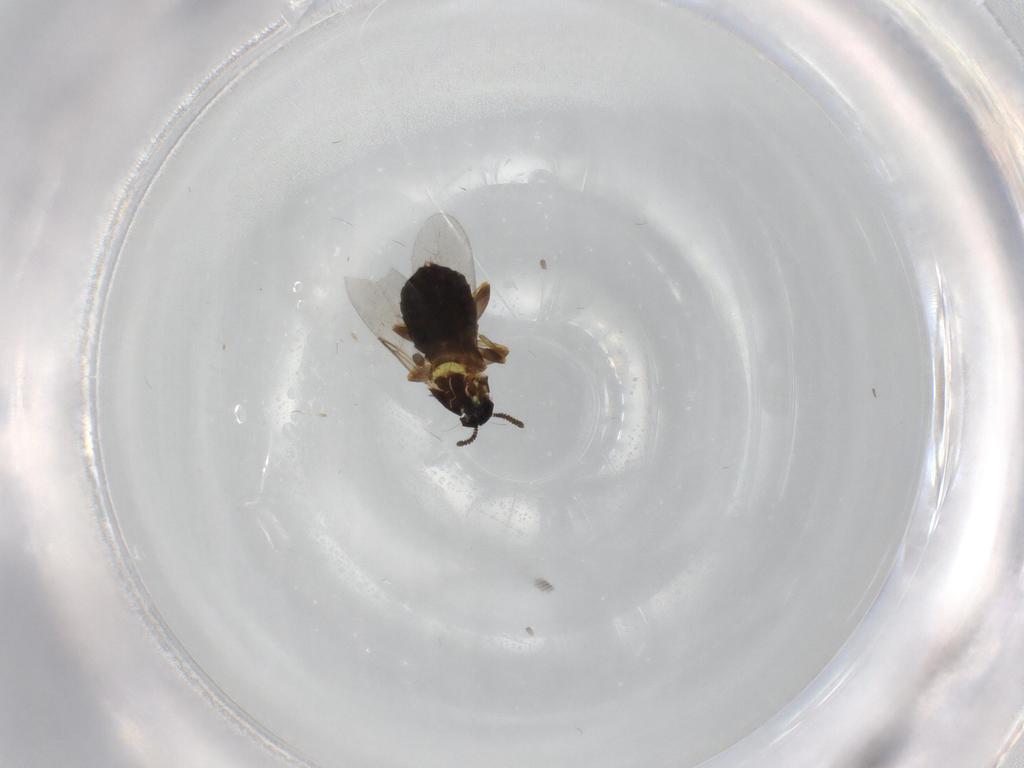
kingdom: Animalia
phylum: Arthropoda
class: Insecta
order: Diptera
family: Scatopsidae
